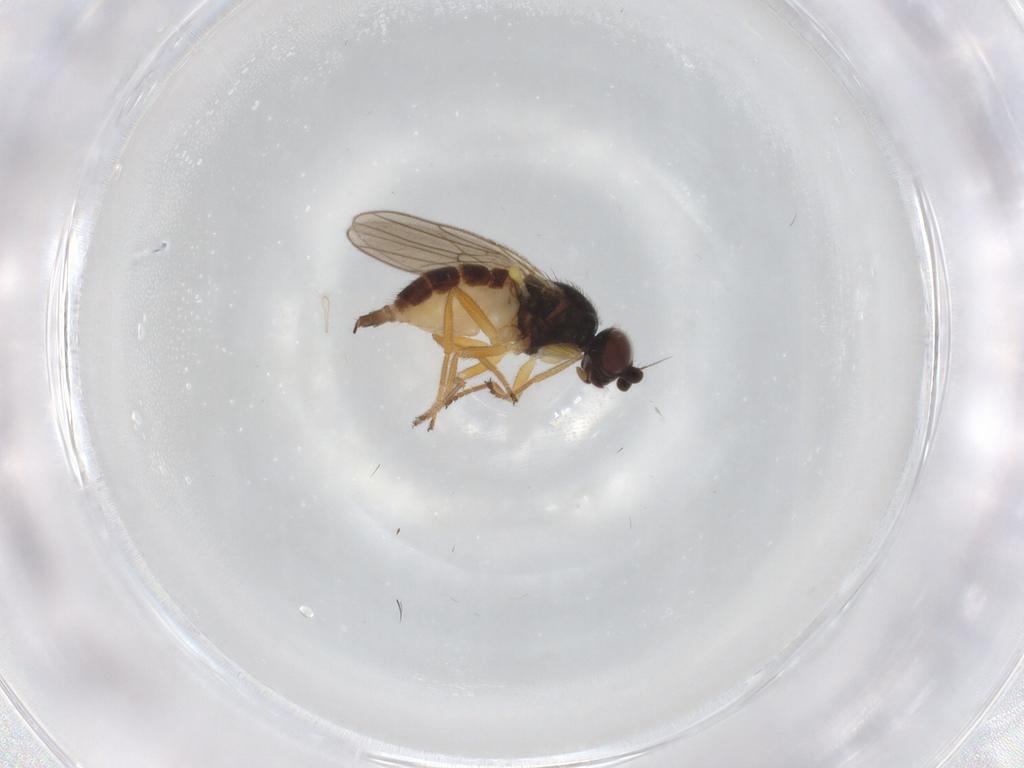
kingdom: Animalia
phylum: Arthropoda
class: Insecta
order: Diptera
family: Chloropidae
